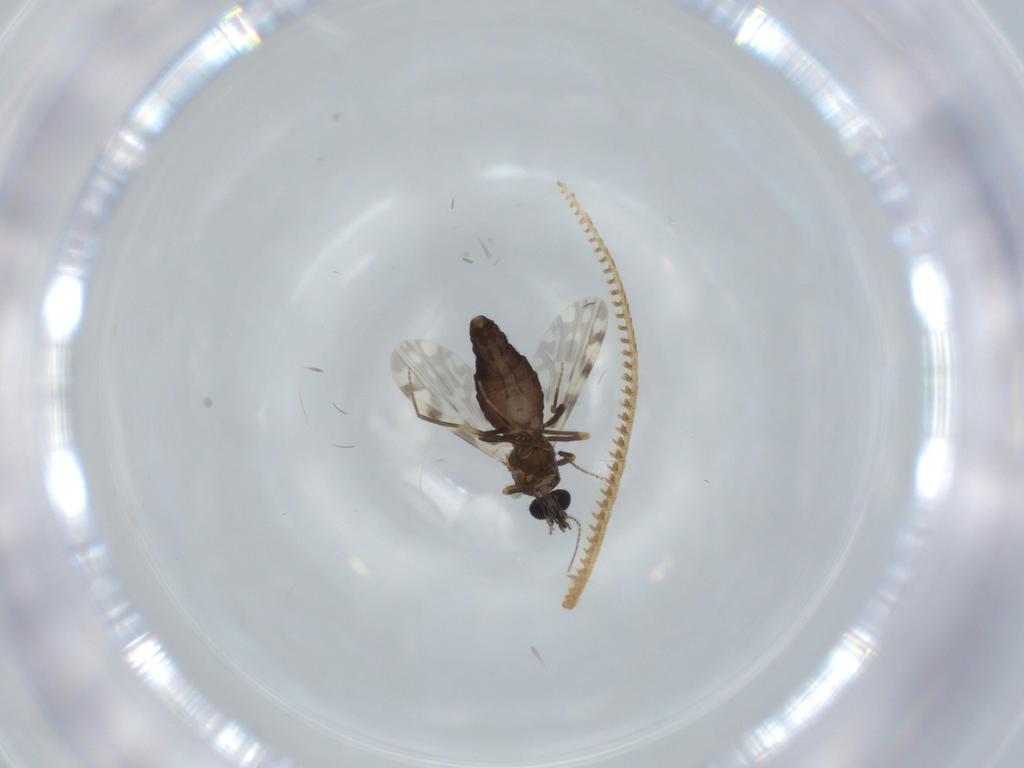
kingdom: Animalia
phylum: Arthropoda
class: Insecta
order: Diptera
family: Ceratopogonidae
